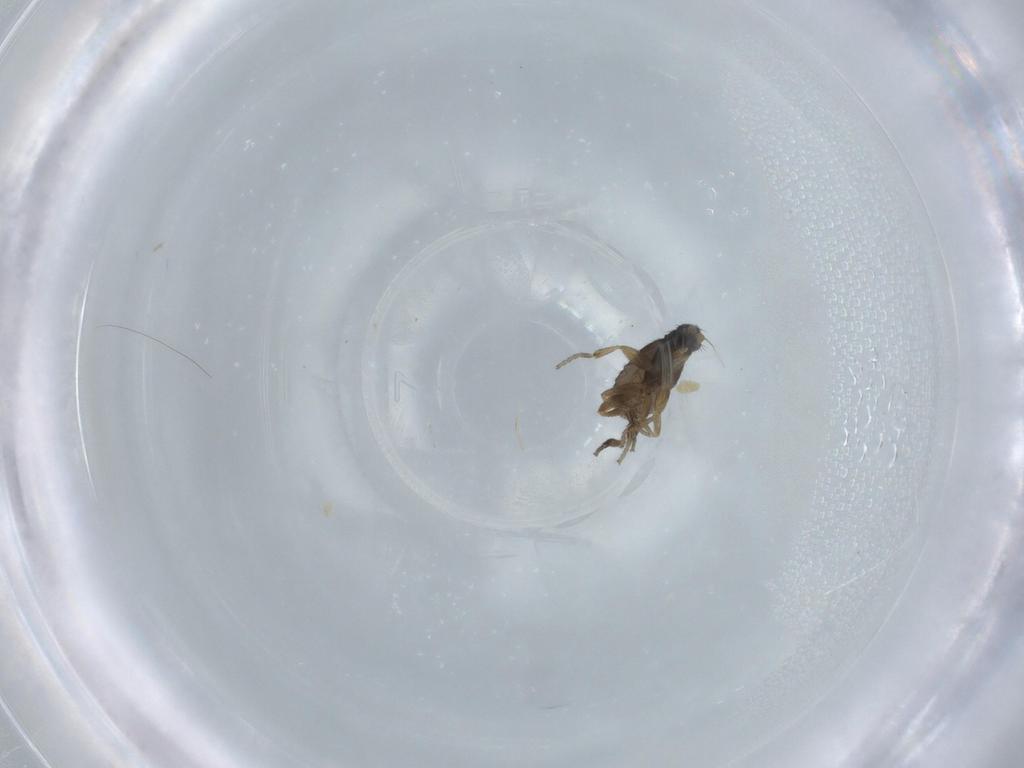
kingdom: Animalia
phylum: Arthropoda
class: Insecta
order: Diptera
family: Phoridae
